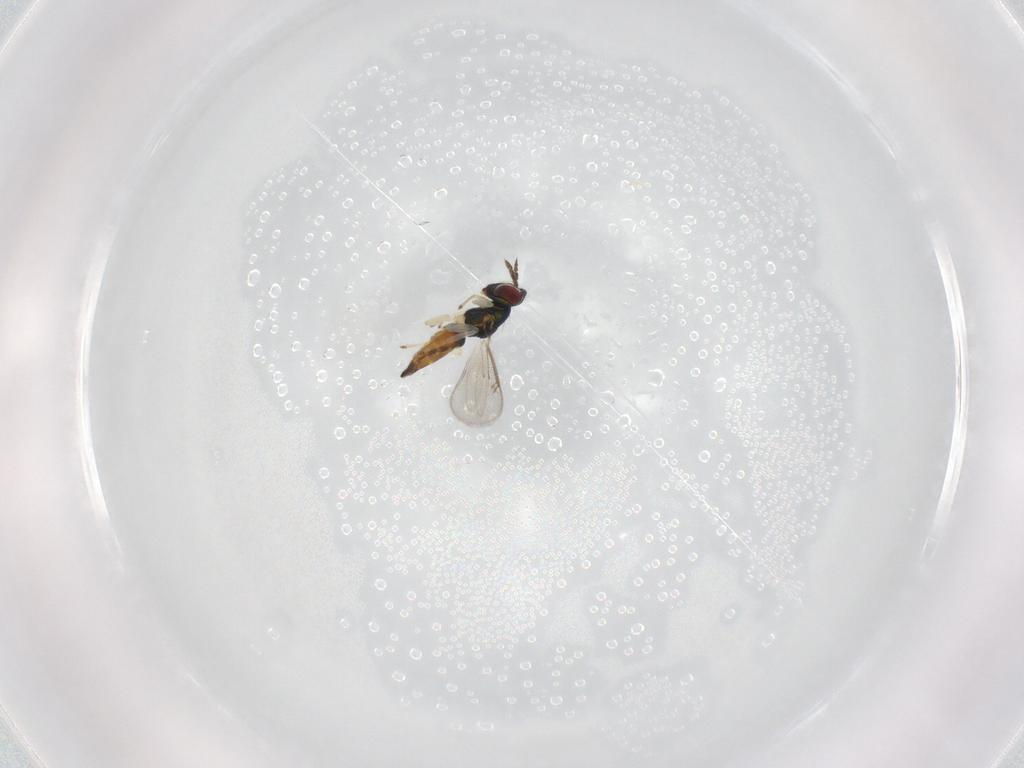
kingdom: Animalia
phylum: Arthropoda
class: Insecta
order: Hymenoptera
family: Eulophidae
